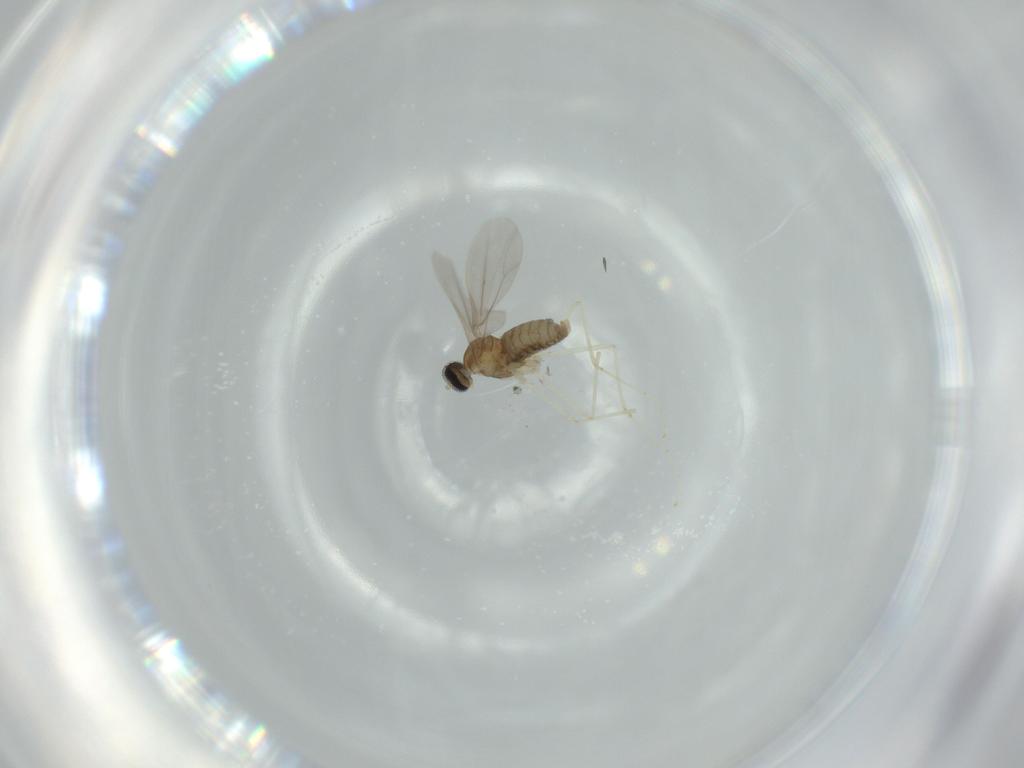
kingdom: Animalia
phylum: Arthropoda
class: Insecta
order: Diptera
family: Cecidomyiidae
